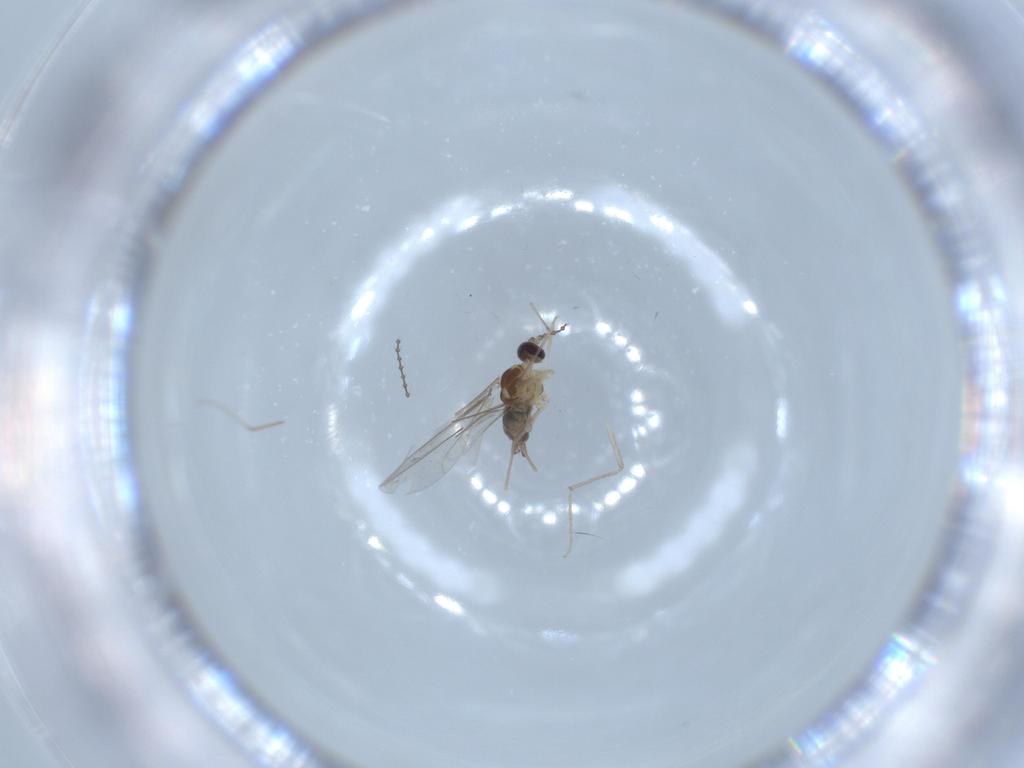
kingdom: Animalia
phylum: Arthropoda
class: Insecta
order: Diptera
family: Cecidomyiidae
